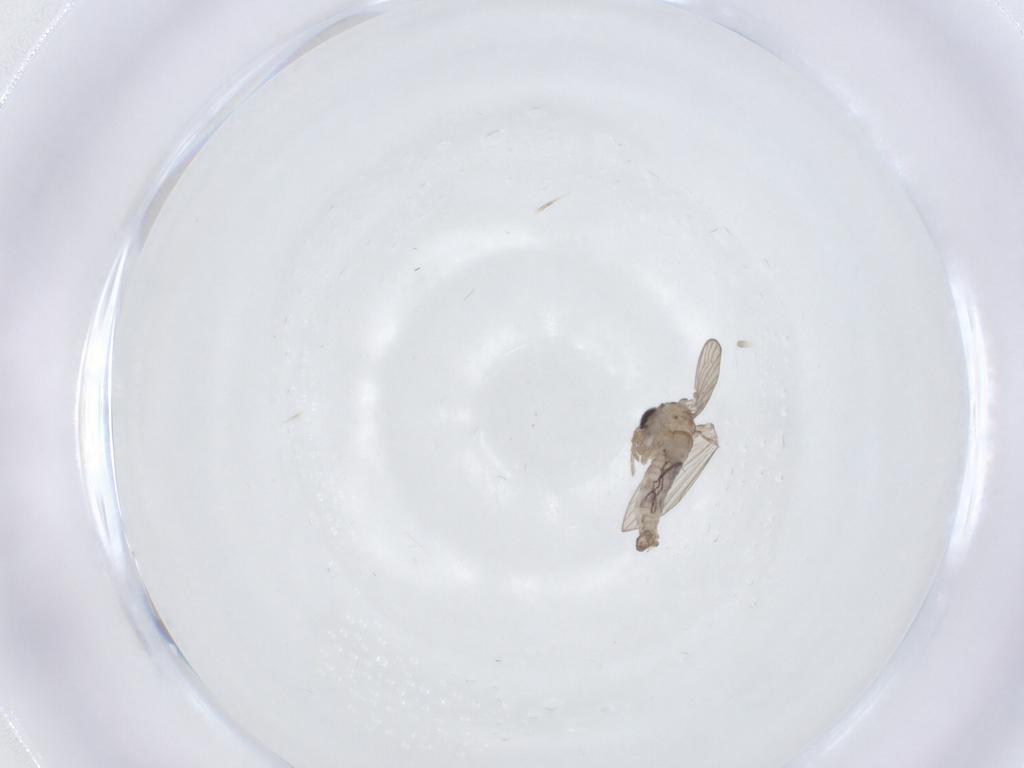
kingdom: Animalia
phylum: Arthropoda
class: Insecta
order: Diptera
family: Psychodidae
